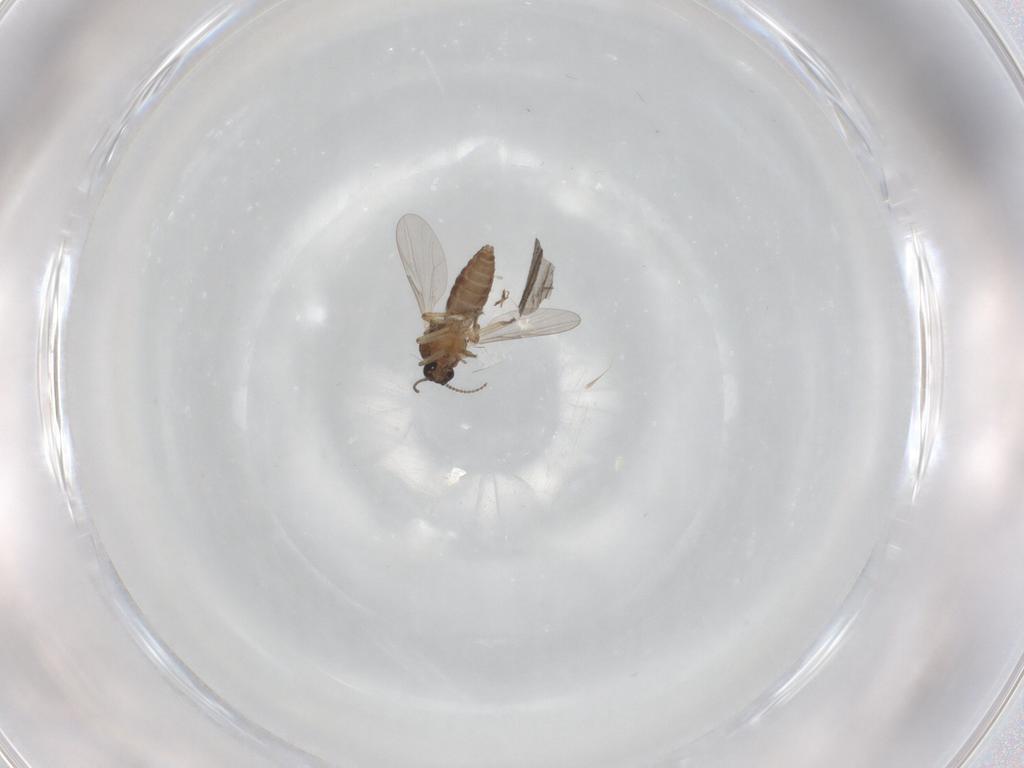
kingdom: Animalia
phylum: Arthropoda
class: Insecta
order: Diptera
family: Ceratopogonidae
